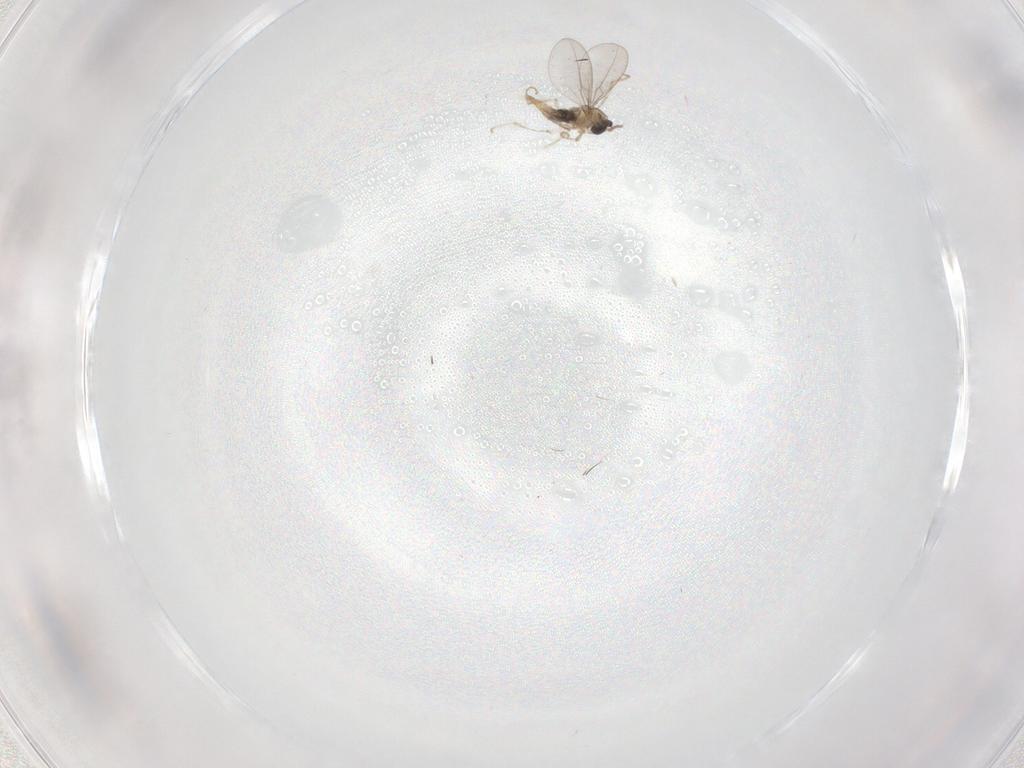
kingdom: Animalia
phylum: Arthropoda
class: Insecta
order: Diptera
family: Cecidomyiidae
